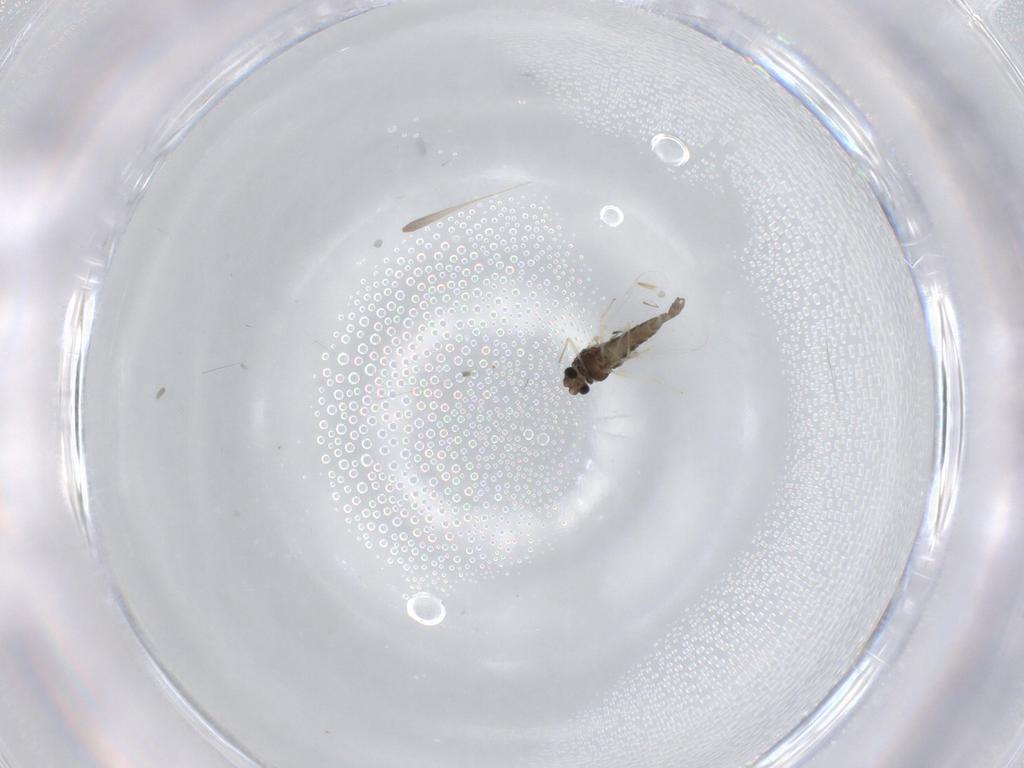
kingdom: Animalia
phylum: Arthropoda
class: Insecta
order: Diptera
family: Chironomidae
